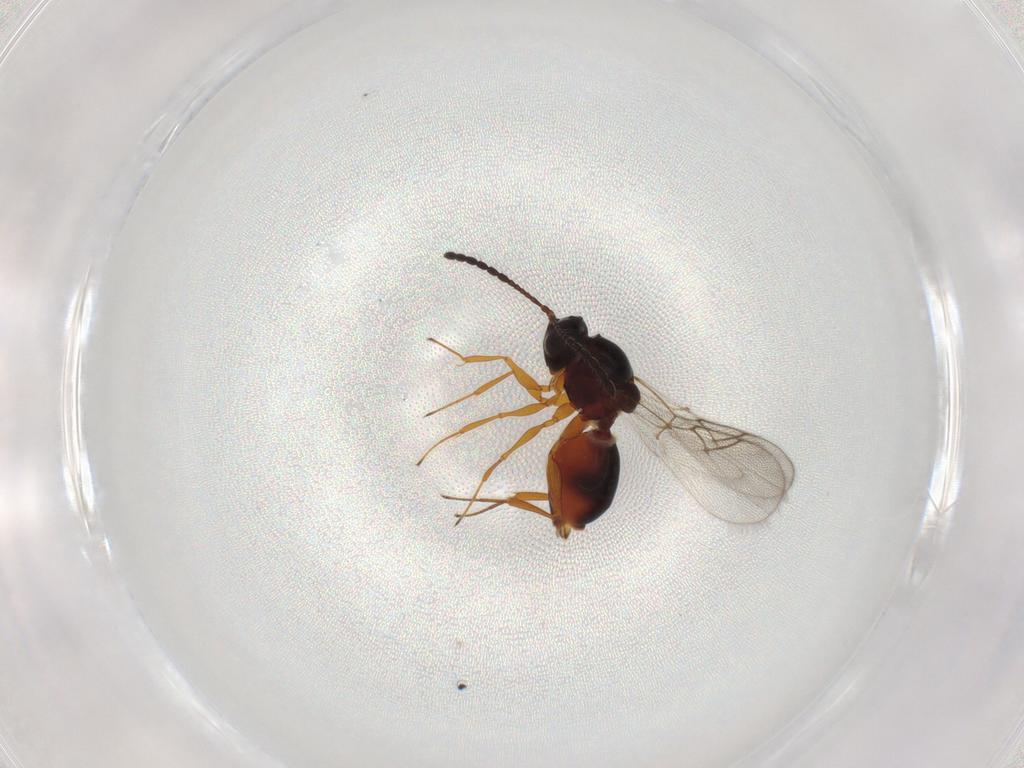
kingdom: Animalia
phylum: Arthropoda
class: Insecta
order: Hymenoptera
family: Figitidae
